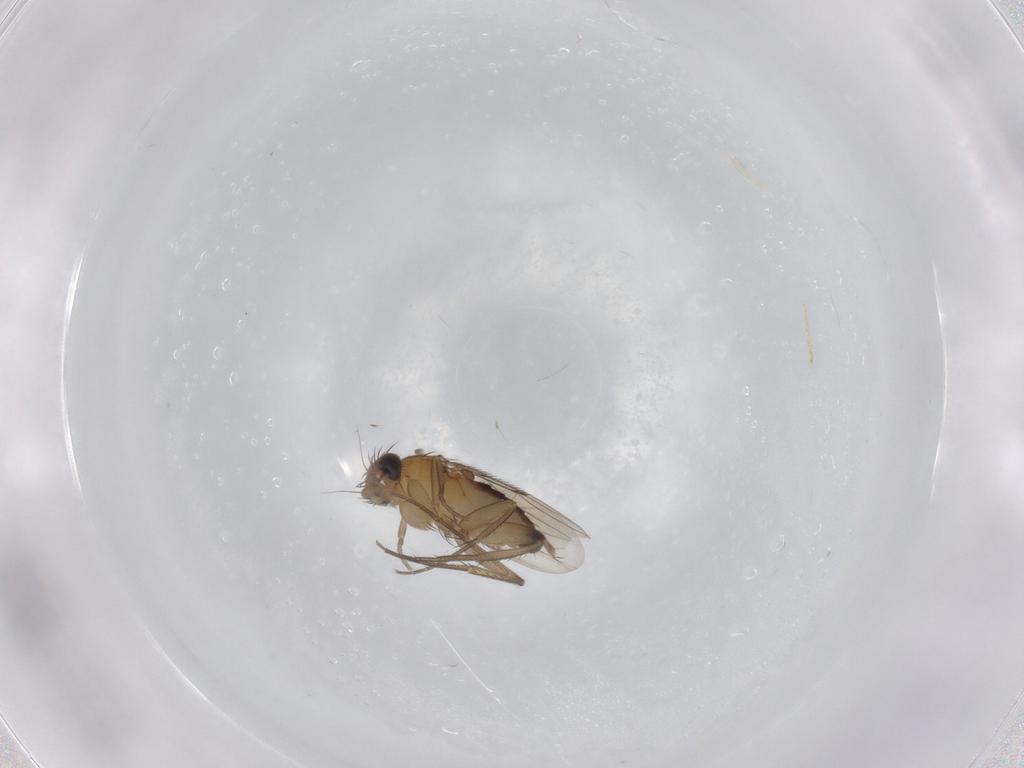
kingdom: Animalia
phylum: Arthropoda
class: Insecta
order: Diptera
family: Phoridae
